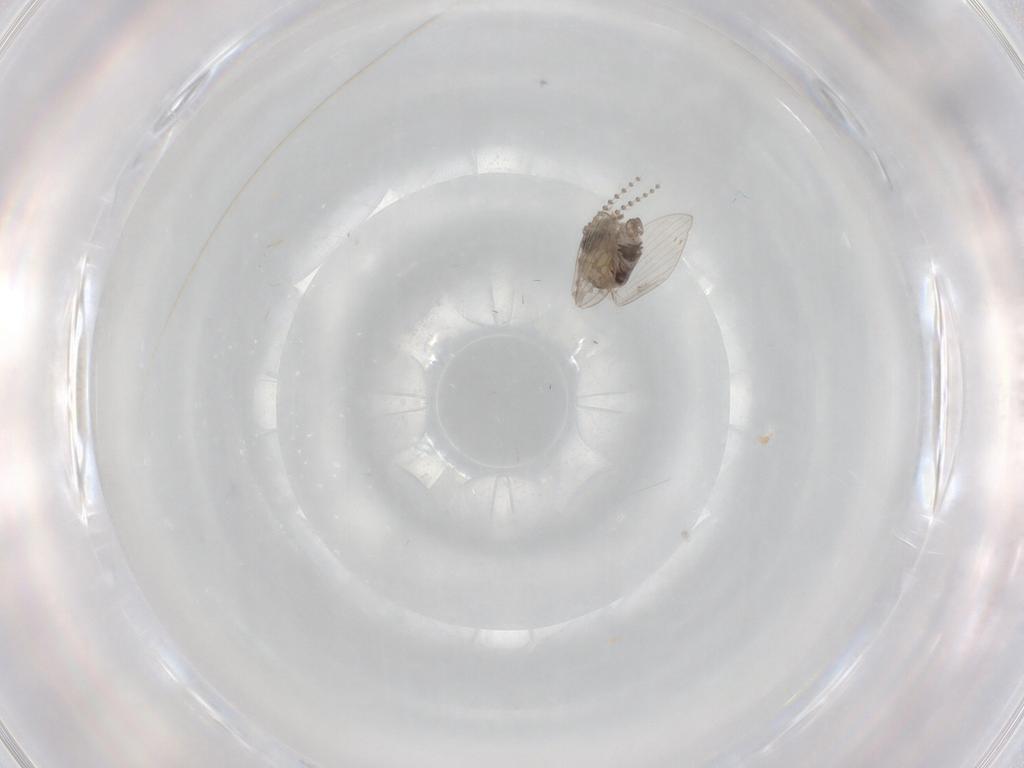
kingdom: Animalia
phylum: Arthropoda
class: Insecta
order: Diptera
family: Psychodidae
